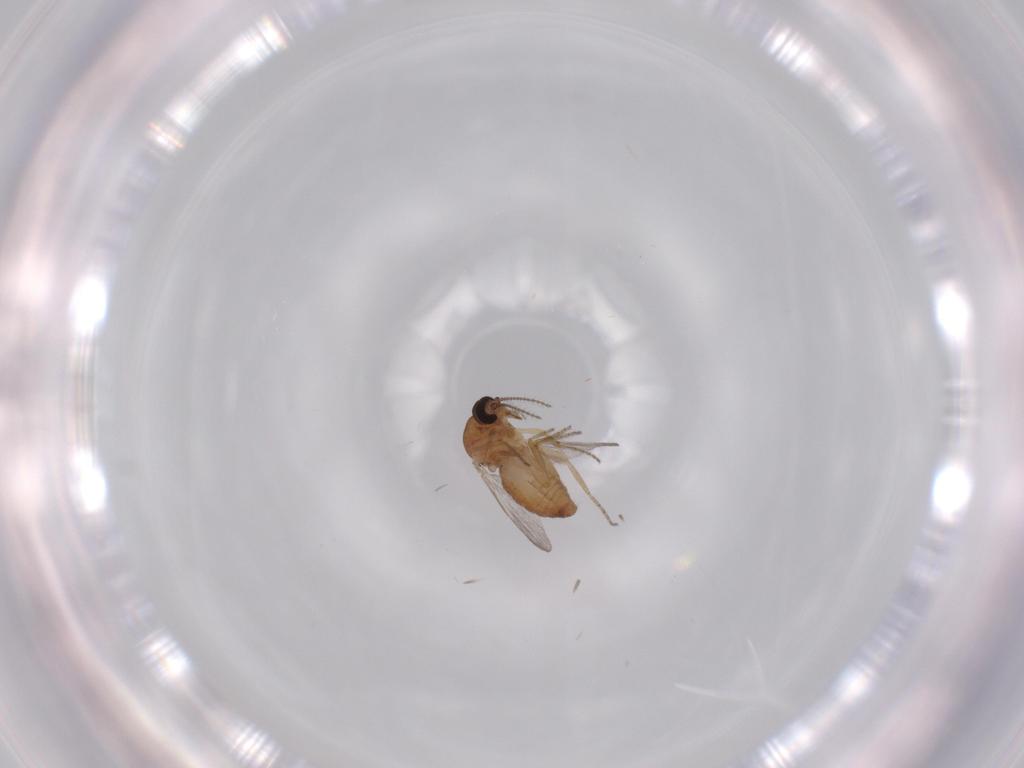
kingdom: Animalia
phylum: Arthropoda
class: Insecta
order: Diptera
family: Ceratopogonidae
